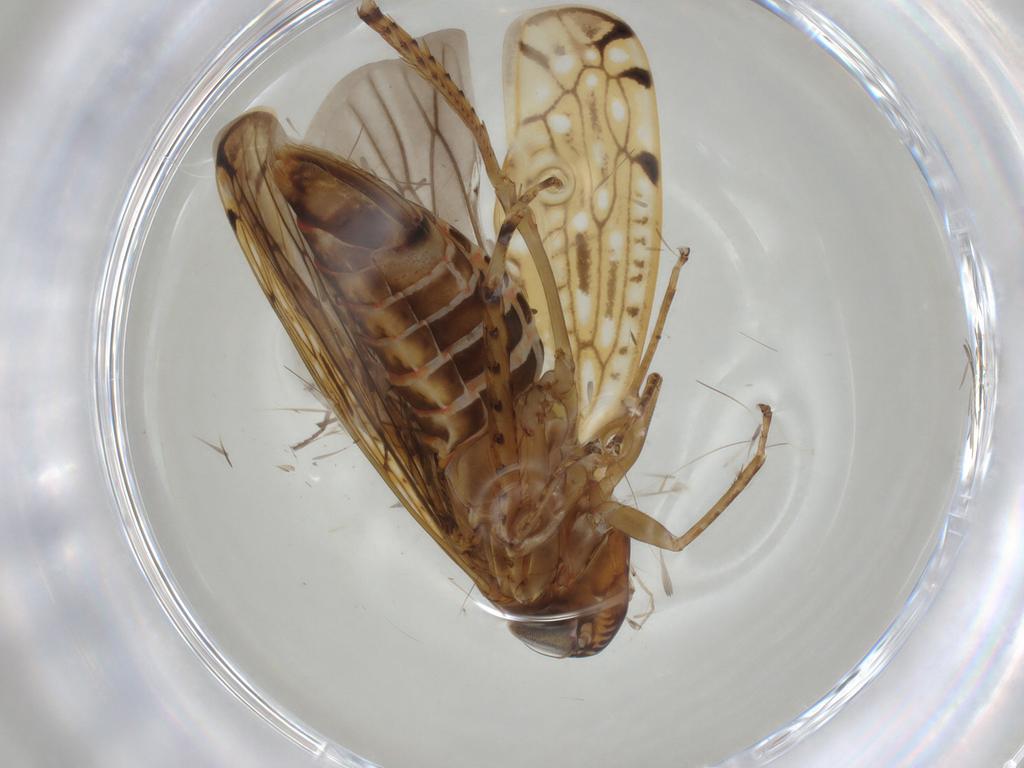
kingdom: Animalia
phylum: Arthropoda
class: Insecta
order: Hemiptera
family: Cicadellidae
